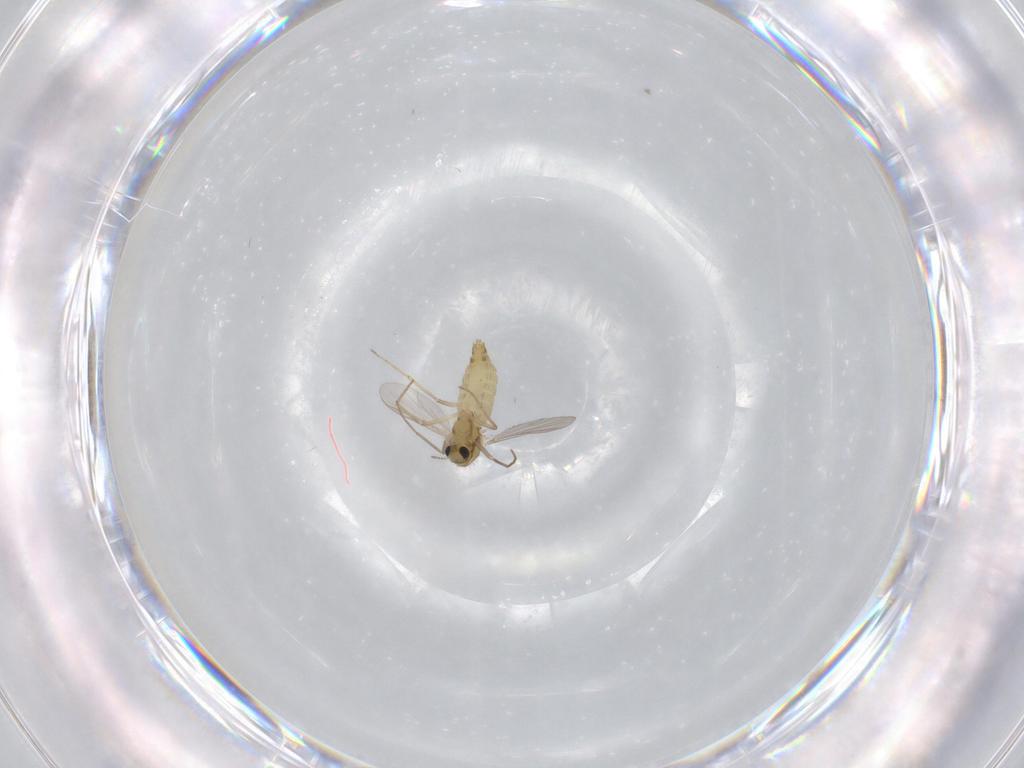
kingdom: Animalia
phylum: Arthropoda
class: Insecta
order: Diptera
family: Chironomidae
